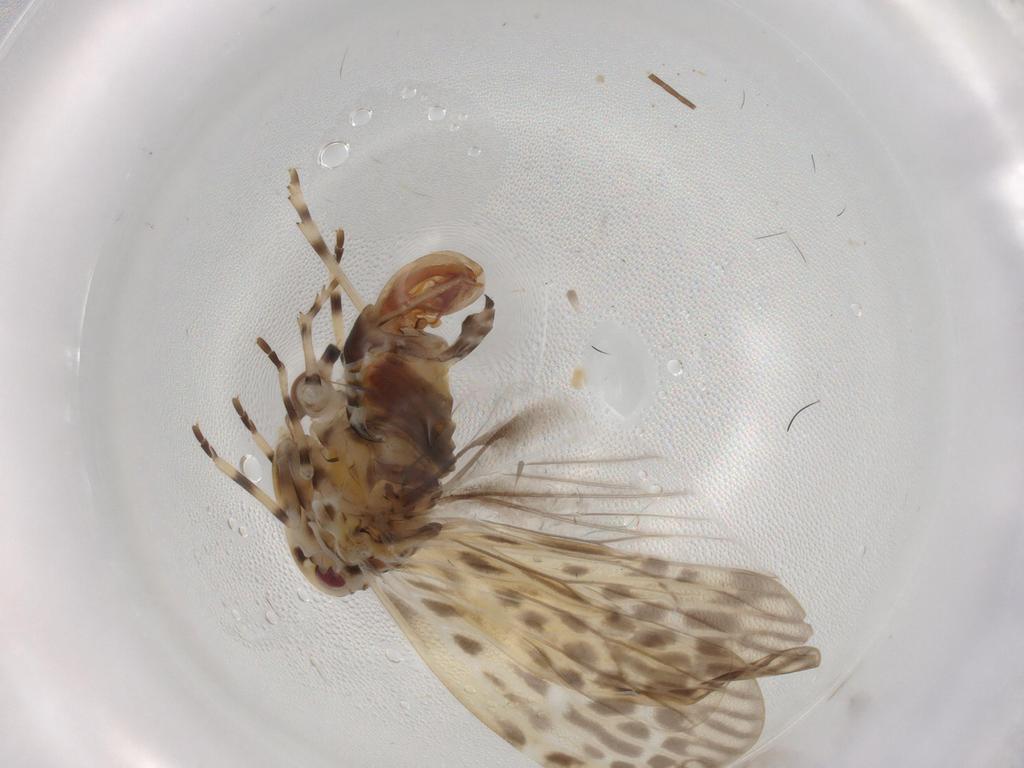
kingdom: Animalia
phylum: Arthropoda
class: Insecta
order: Hemiptera
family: Derbidae
